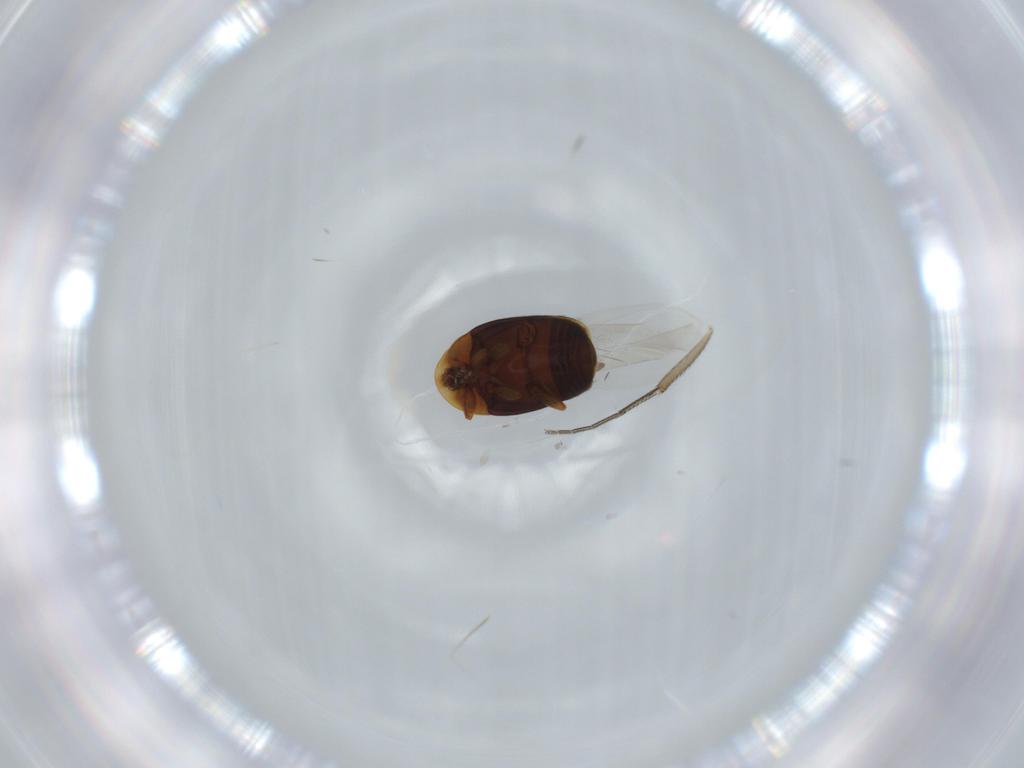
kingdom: Animalia
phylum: Arthropoda
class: Insecta
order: Coleoptera
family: Corylophidae
